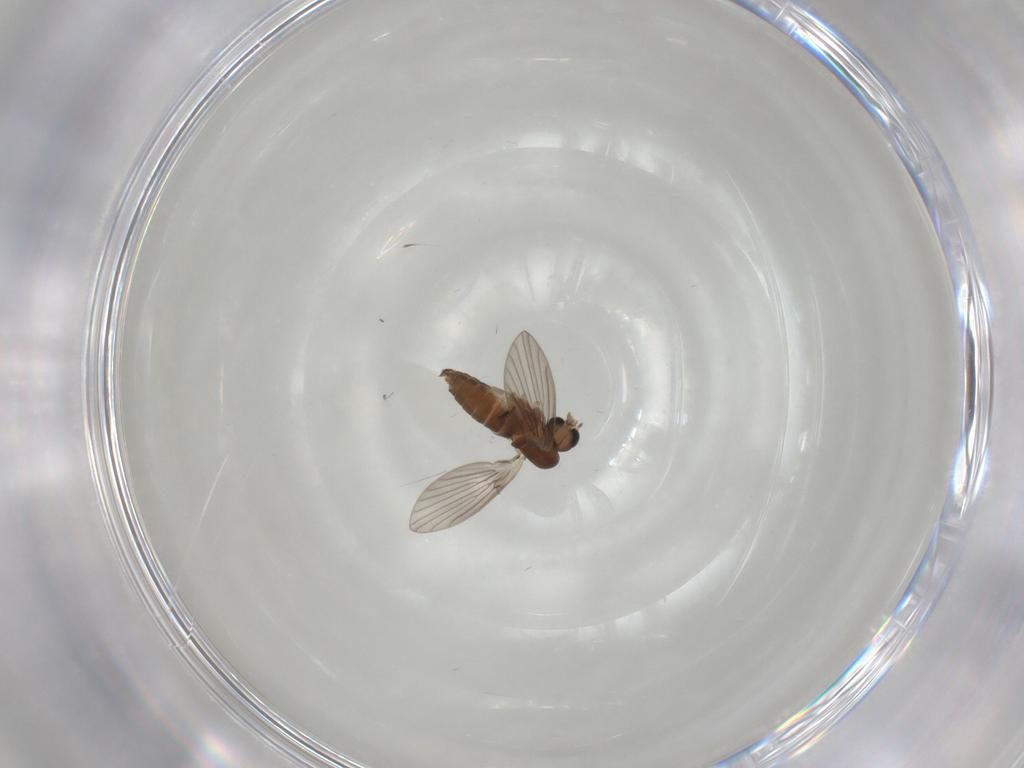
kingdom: Animalia
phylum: Arthropoda
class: Insecta
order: Diptera
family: Drosophilidae
